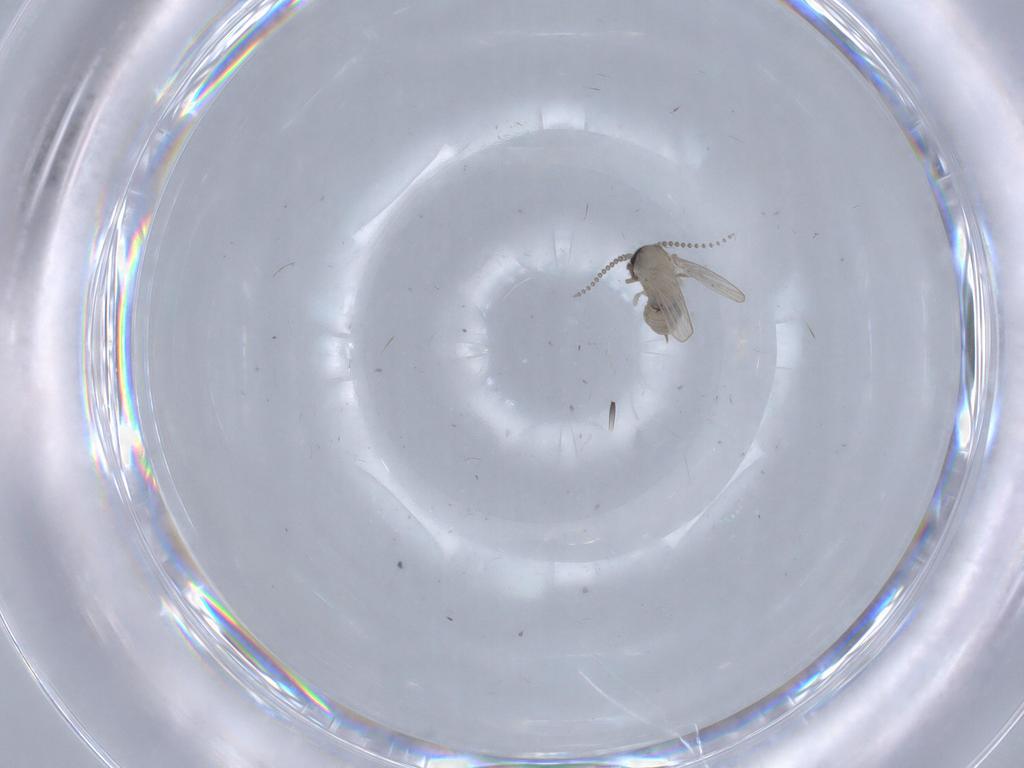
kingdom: Animalia
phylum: Arthropoda
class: Insecta
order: Diptera
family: Psychodidae
